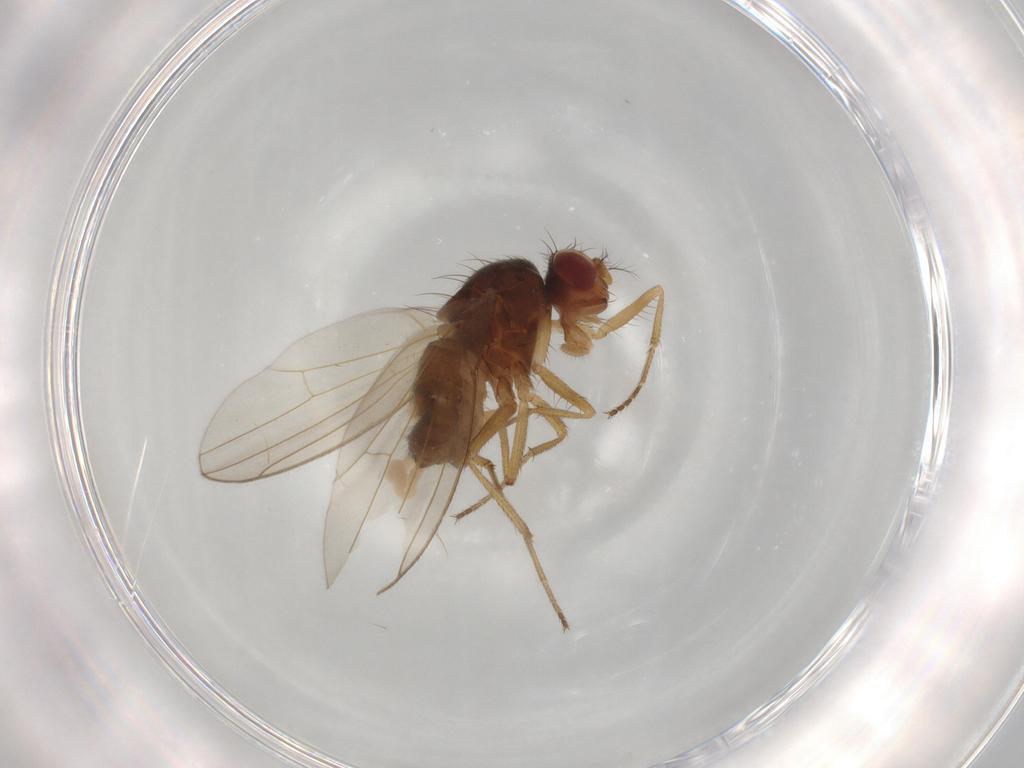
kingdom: Animalia
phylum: Arthropoda
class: Insecta
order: Diptera
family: Drosophilidae
